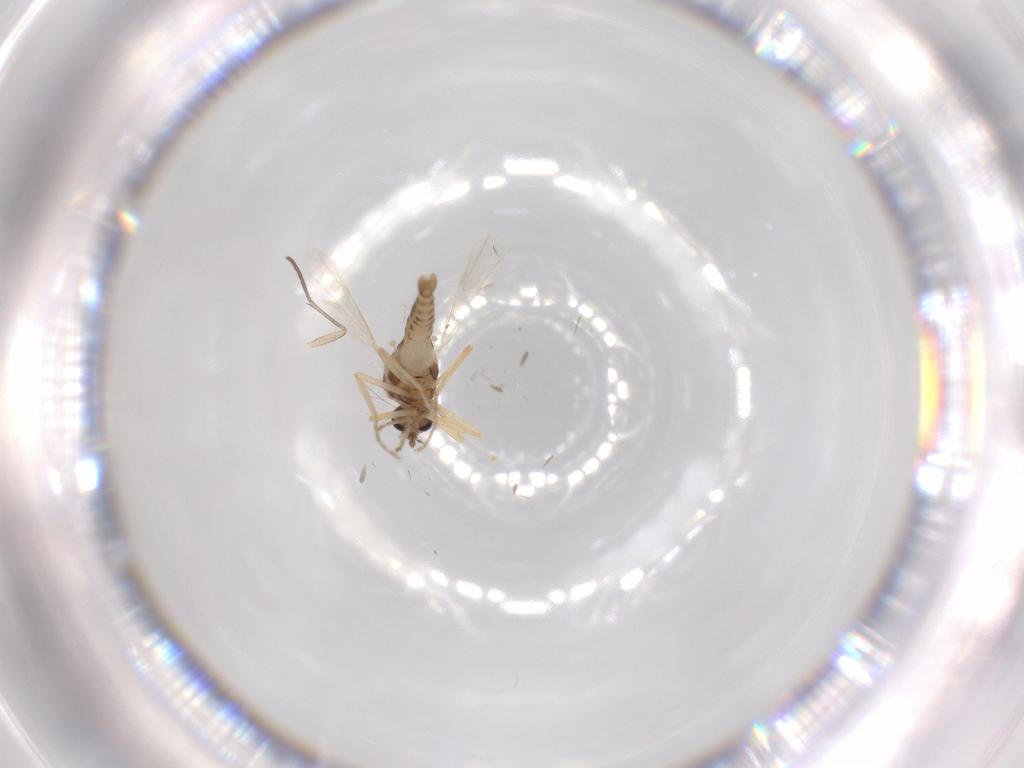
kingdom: Animalia
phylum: Arthropoda
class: Insecta
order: Diptera
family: Ceratopogonidae
